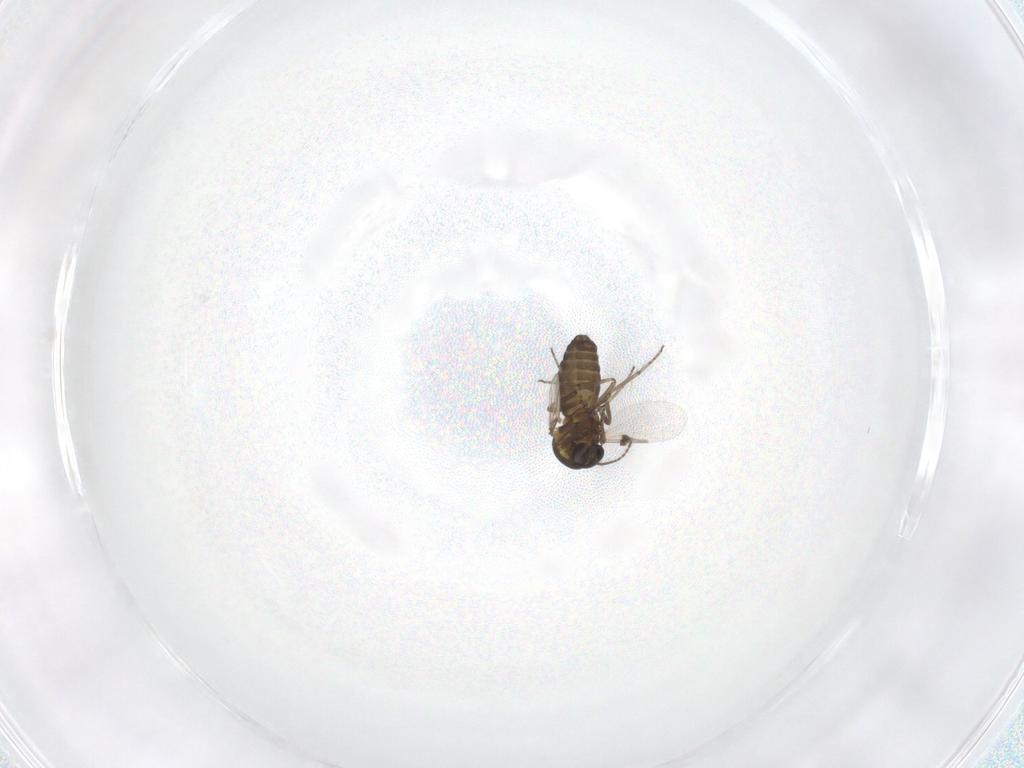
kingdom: Animalia
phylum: Arthropoda
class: Insecta
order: Diptera
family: Ceratopogonidae
